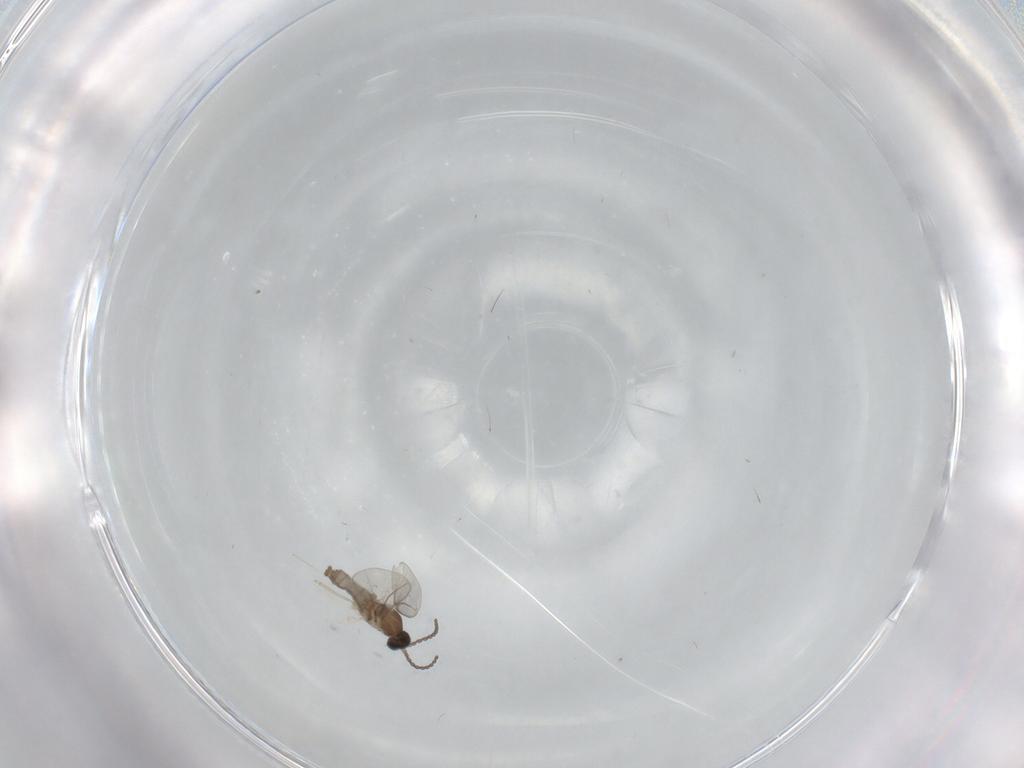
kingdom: Animalia
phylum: Arthropoda
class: Insecta
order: Diptera
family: Cecidomyiidae
